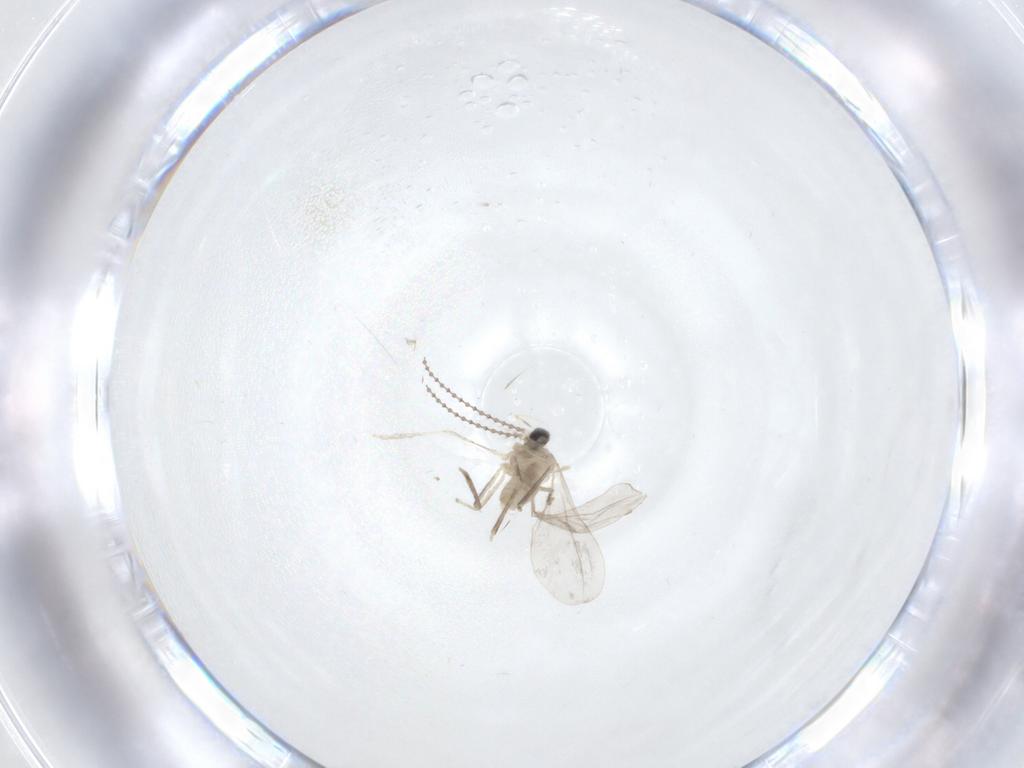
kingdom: Animalia
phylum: Arthropoda
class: Insecta
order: Diptera
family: Chironomidae
